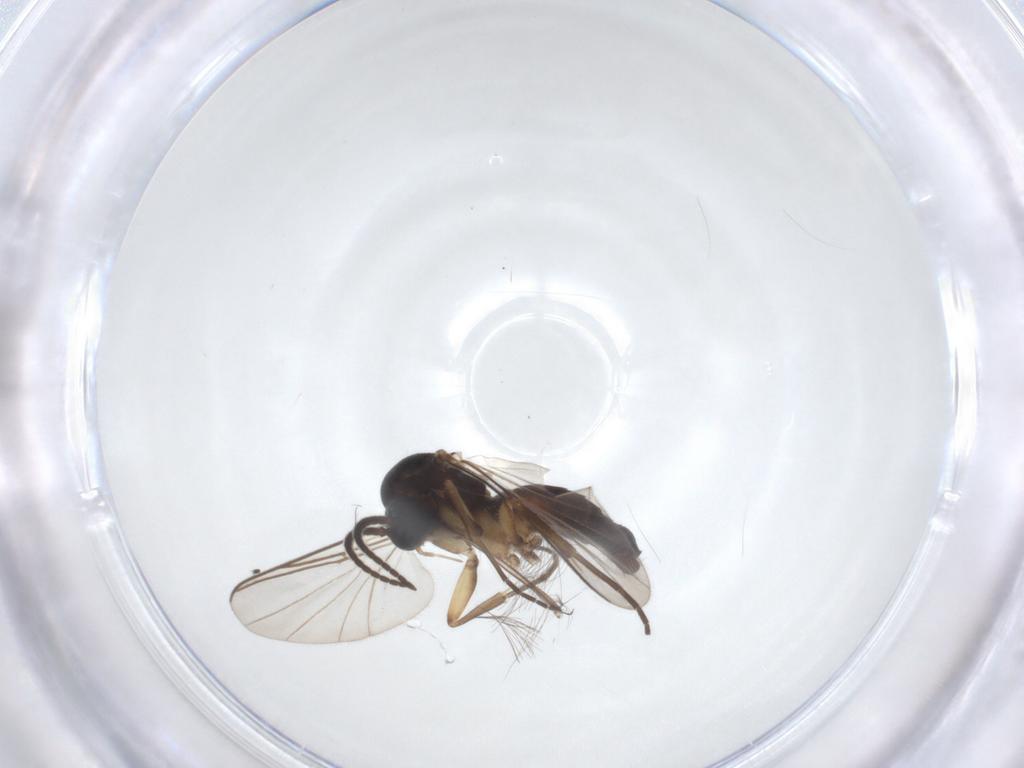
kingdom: Animalia
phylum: Arthropoda
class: Insecta
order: Diptera
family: Mycetophilidae
